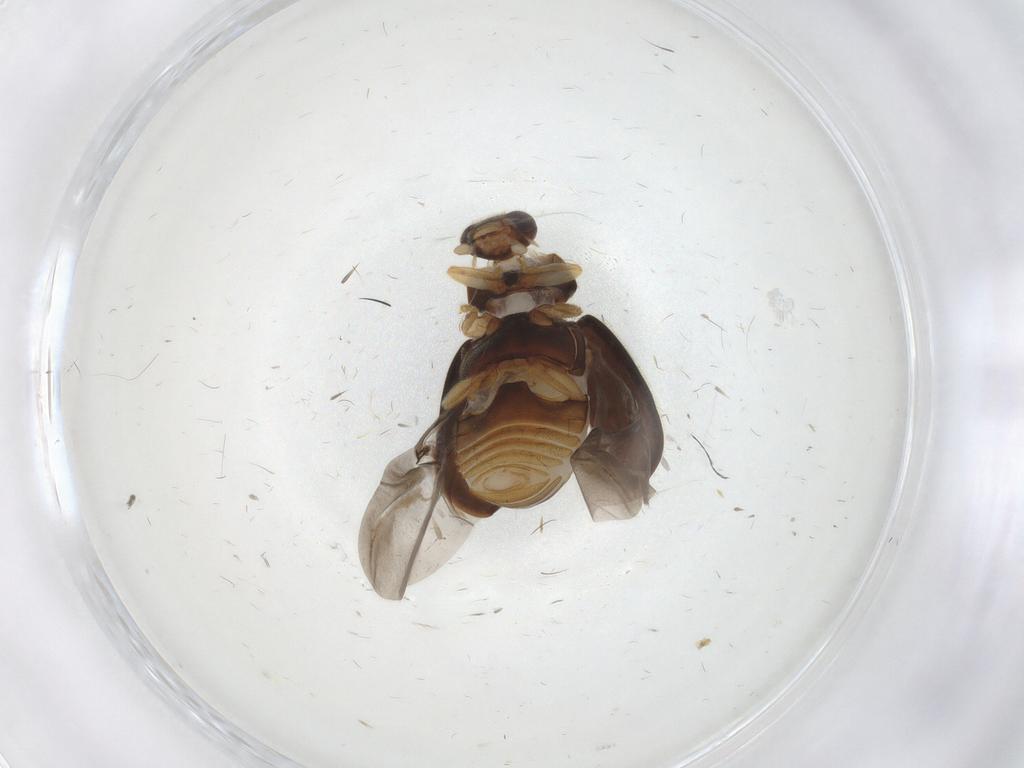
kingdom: Animalia
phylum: Arthropoda
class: Insecta
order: Coleoptera
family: Coccinellidae
